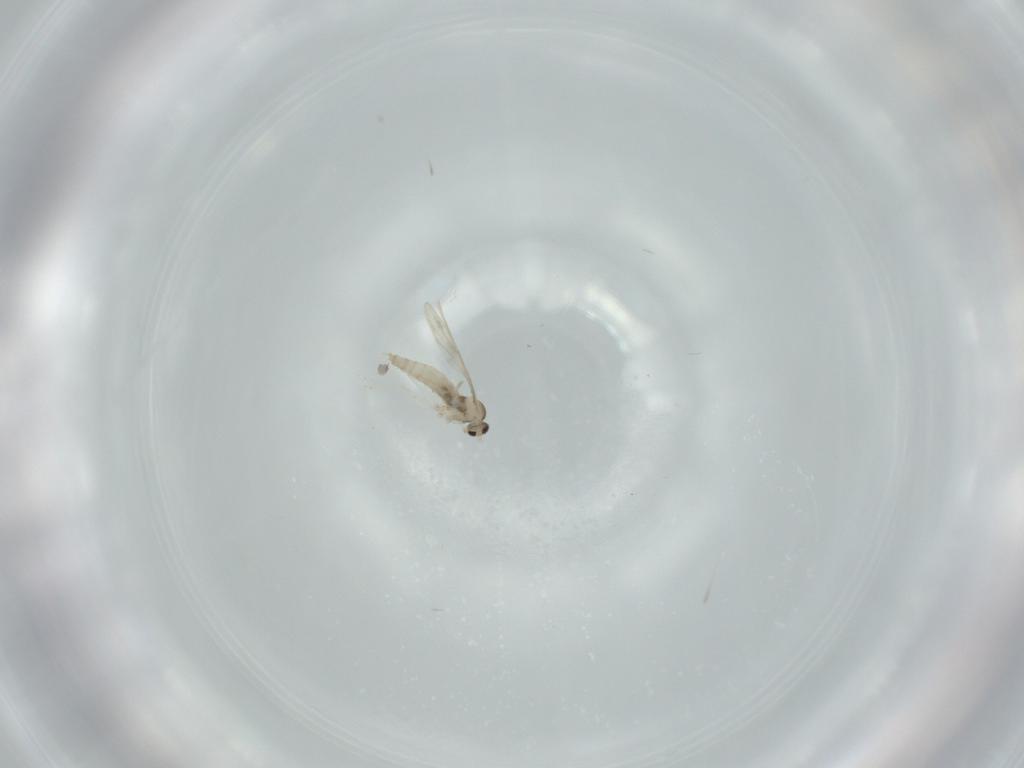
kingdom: Animalia
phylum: Arthropoda
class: Insecta
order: Diptera
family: Cecidomyiidae
